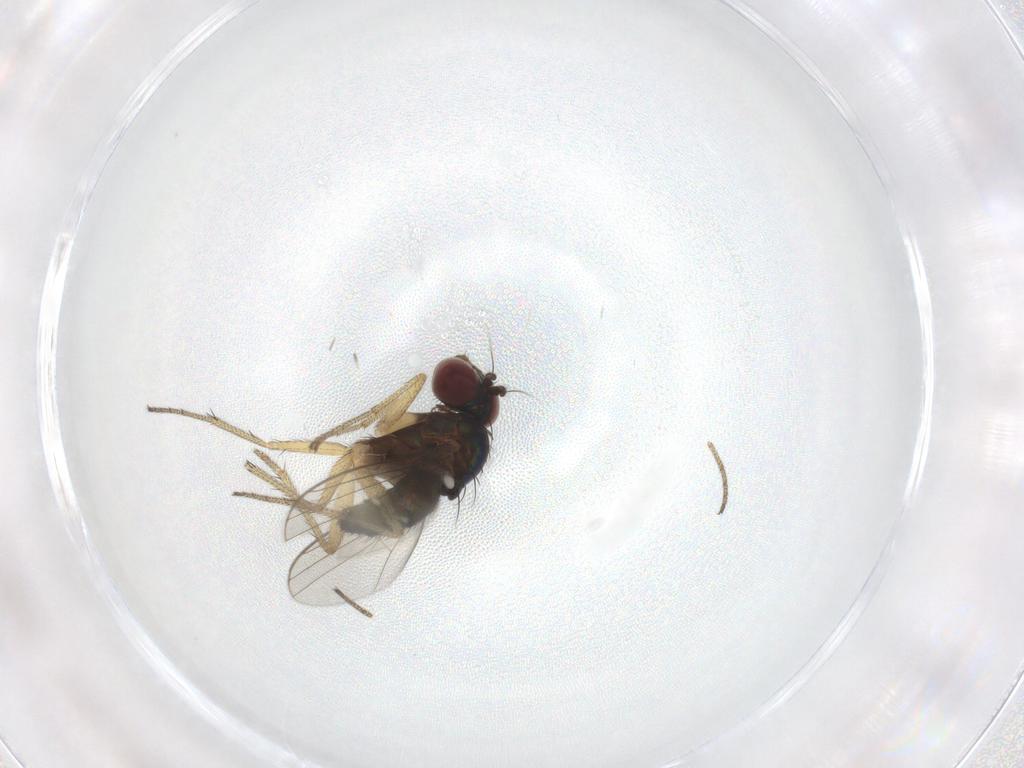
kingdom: Animalia
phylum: Arthropoda
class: Insecta
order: Diptera
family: Dolichopodidae
